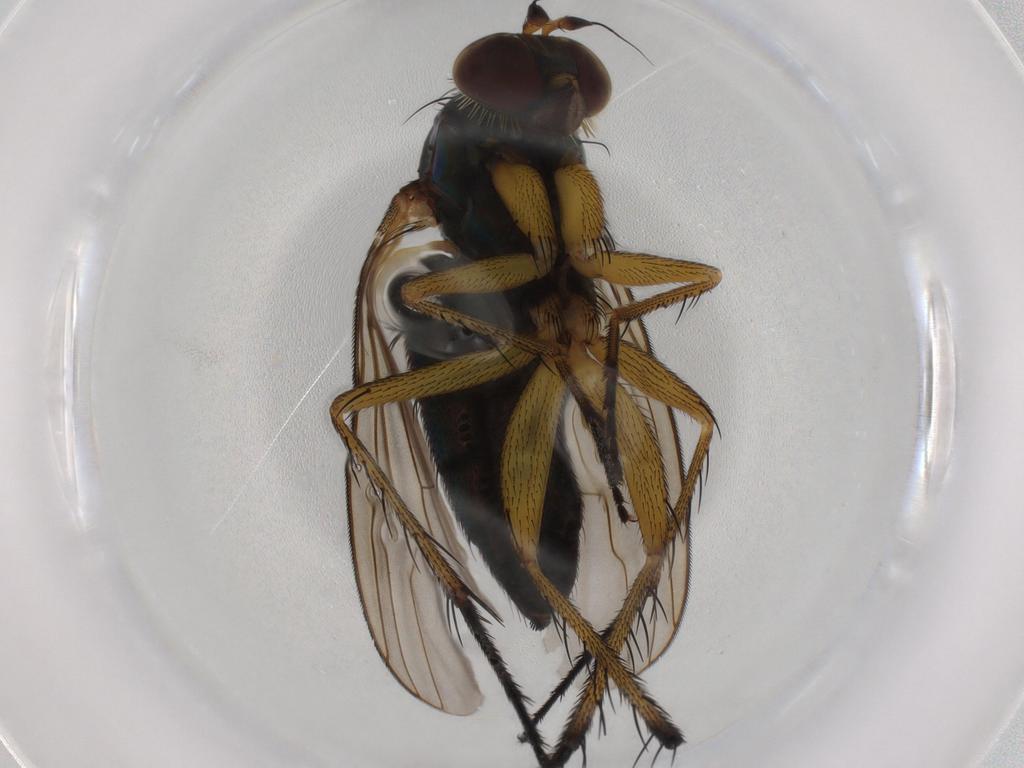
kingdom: Animalia
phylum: Arthropoda
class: Insecta
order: Diptera
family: Dolichopodidae
